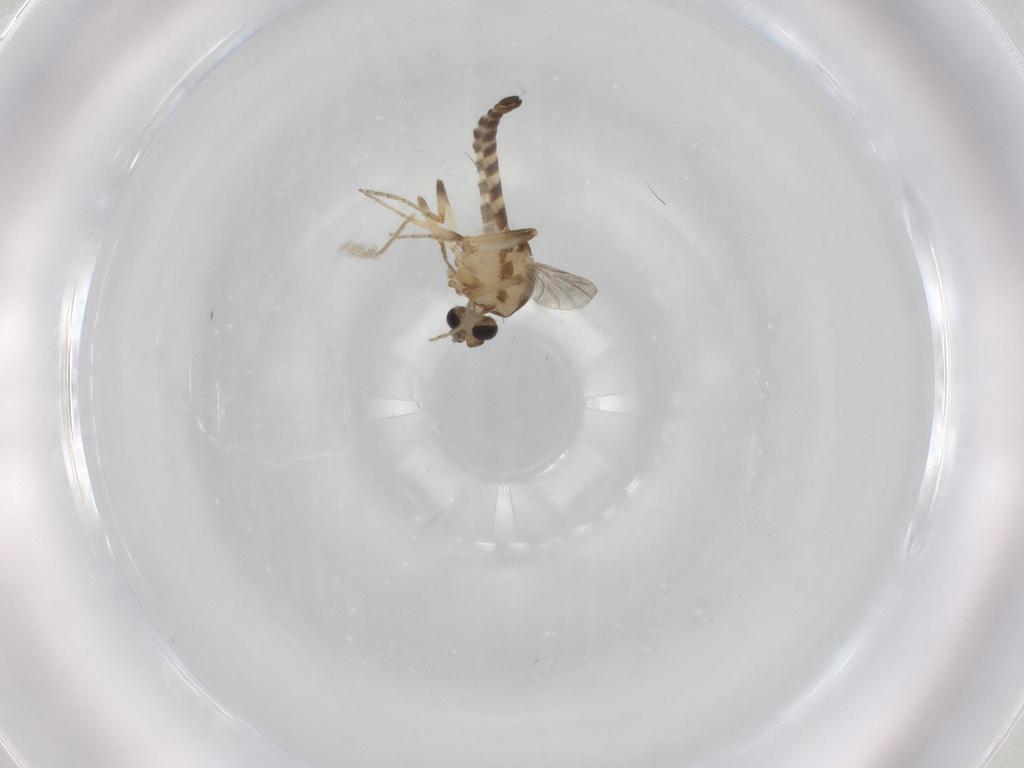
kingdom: Animalia
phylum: Arthropoda
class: Insecta
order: Diptera
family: Ceratopogonidae
